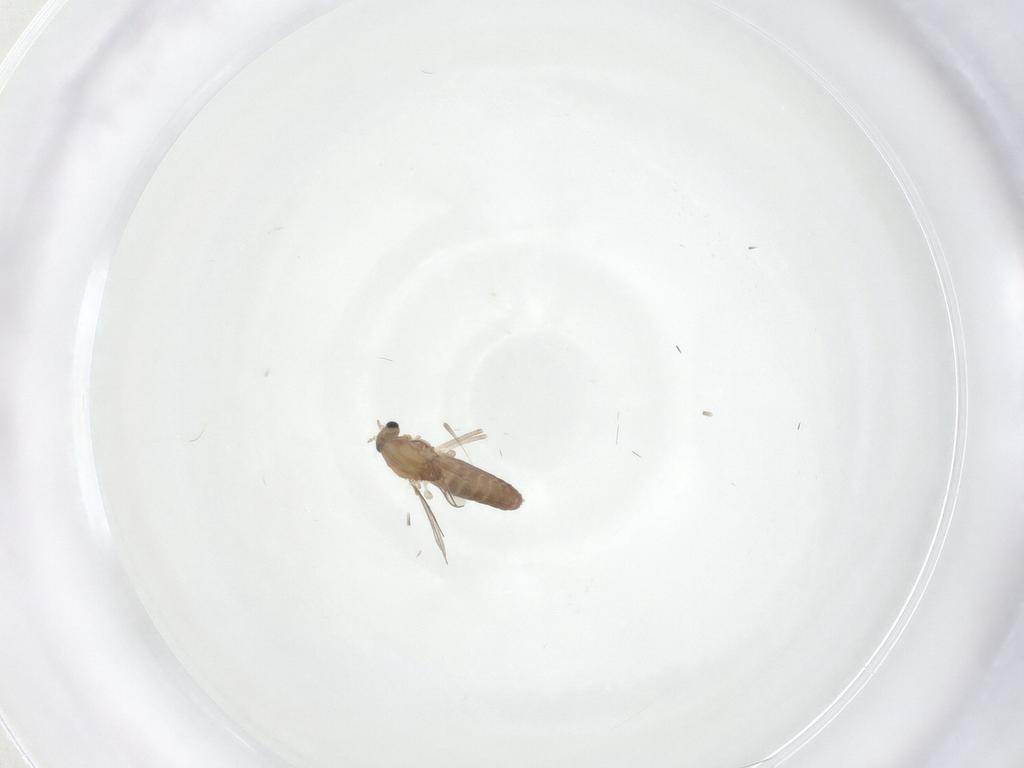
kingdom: Animalia
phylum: Arthropoda
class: Insecta
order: Diptera
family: Chironomidae
